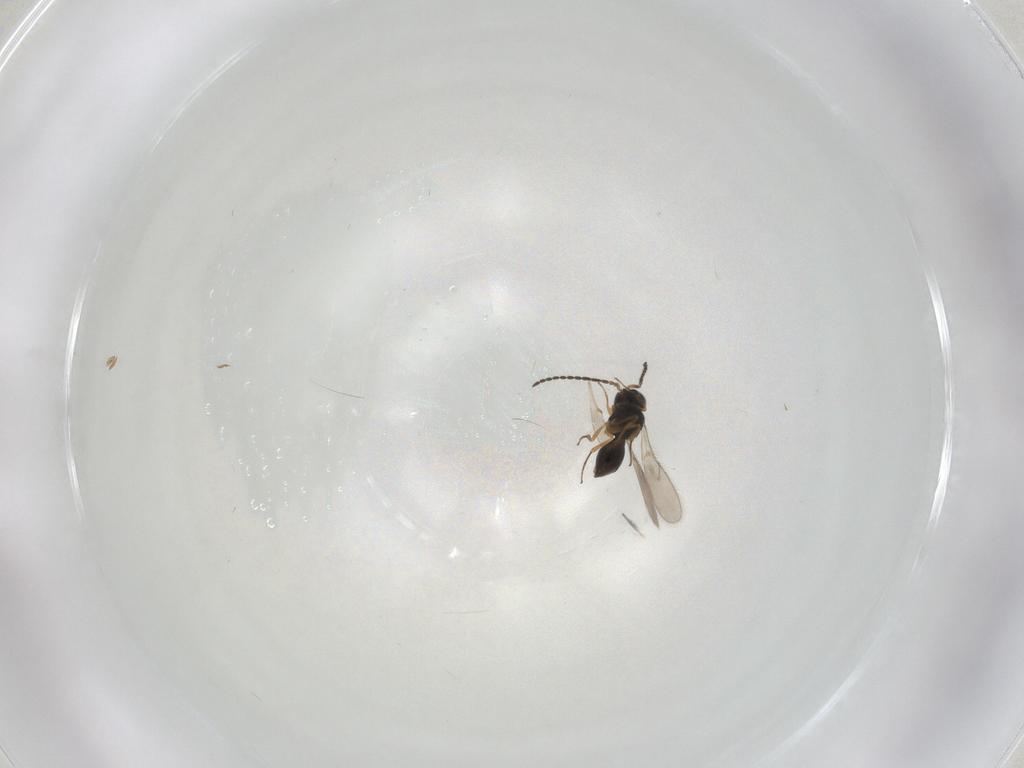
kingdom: Animalia
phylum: Arthropoda
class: Insecta
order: Hymenoptera
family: Scelionidae
